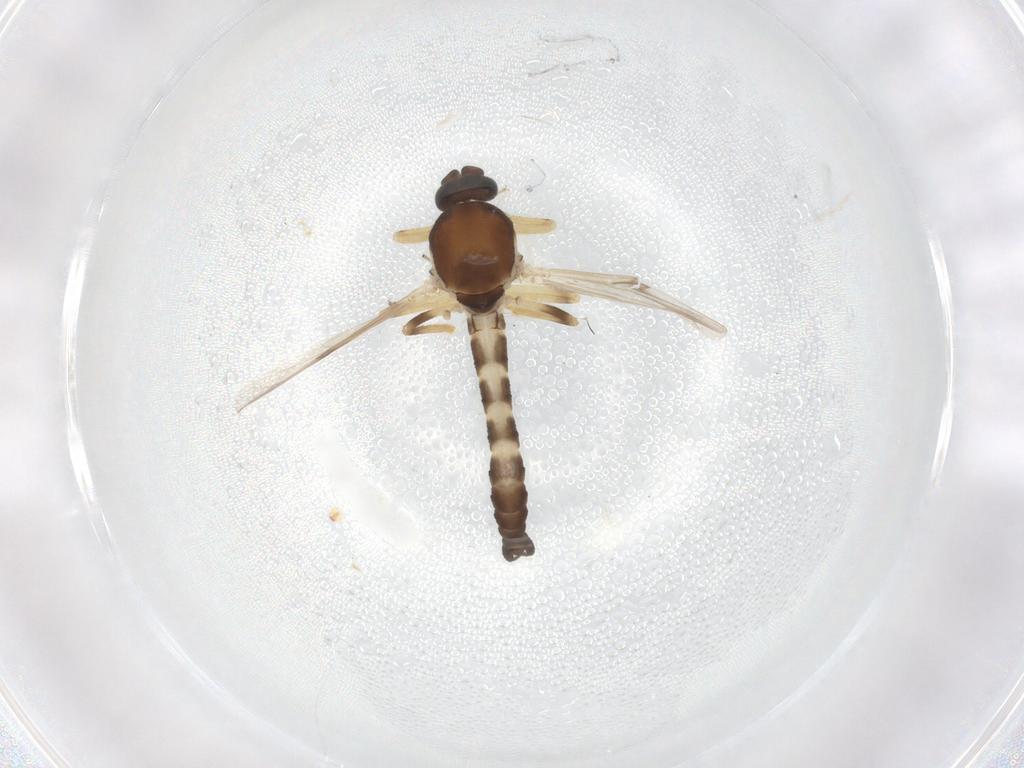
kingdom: Animalia
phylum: Arthropoda
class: Insecta
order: Diptera
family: Ceratopogonidae
